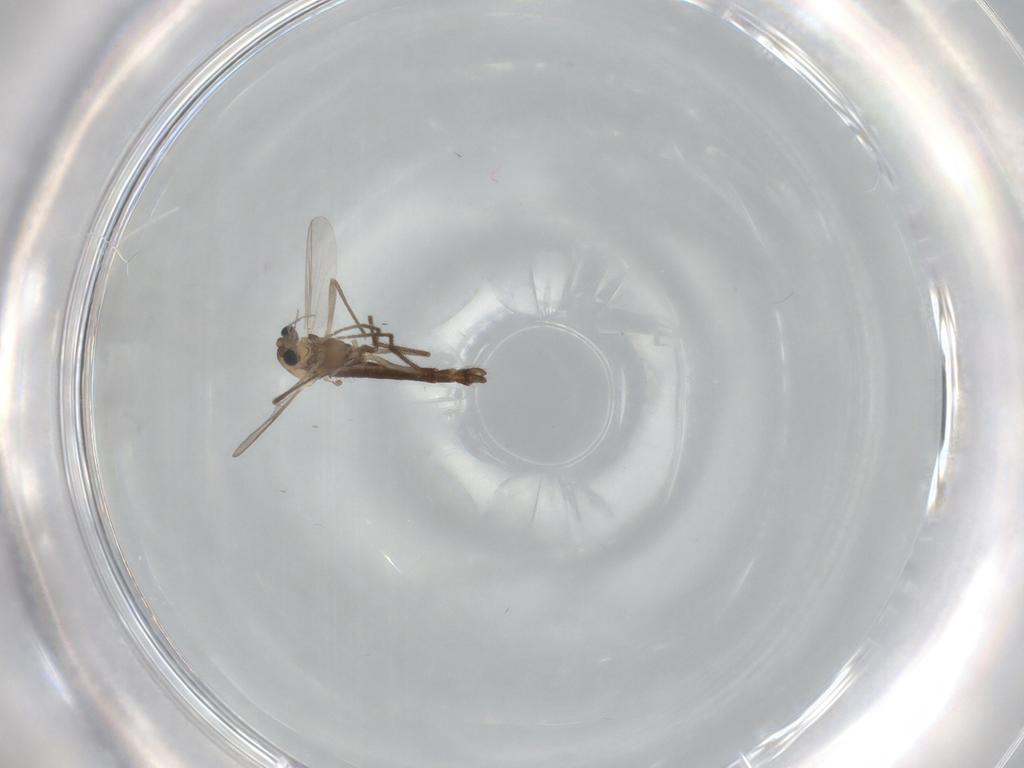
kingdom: Animalia
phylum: Arthropoda
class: Insecta
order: Diptera
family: Chironomidae
